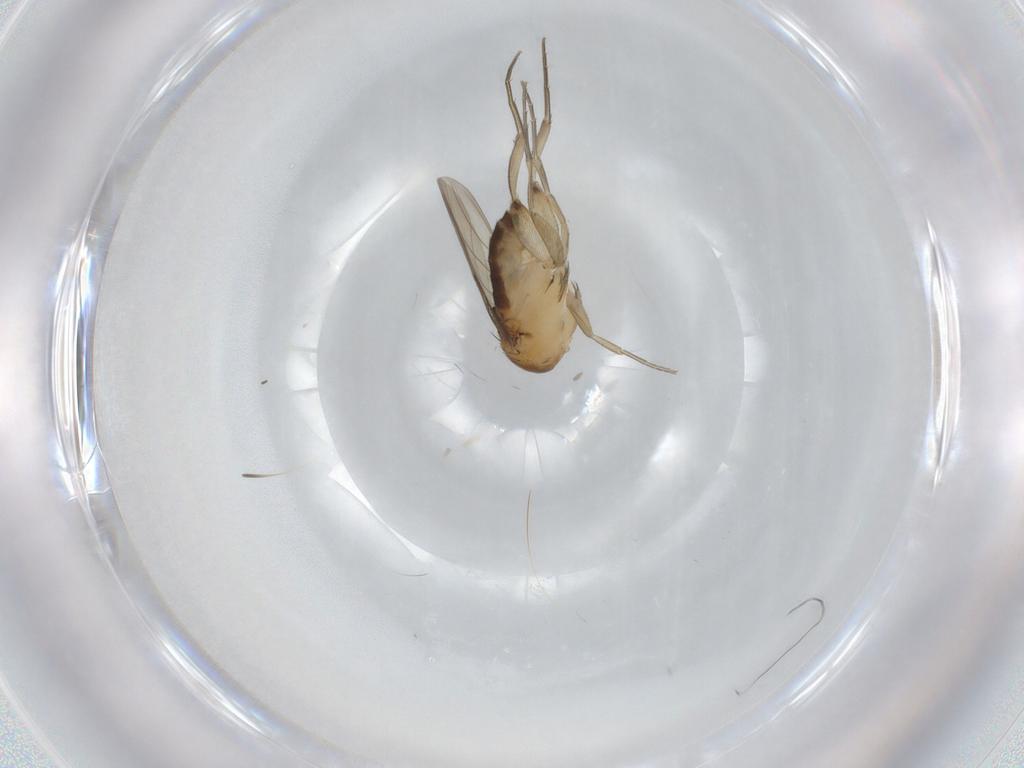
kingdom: Animalia
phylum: Arthropoda
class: Insecta
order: Diptera
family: Phoridae
